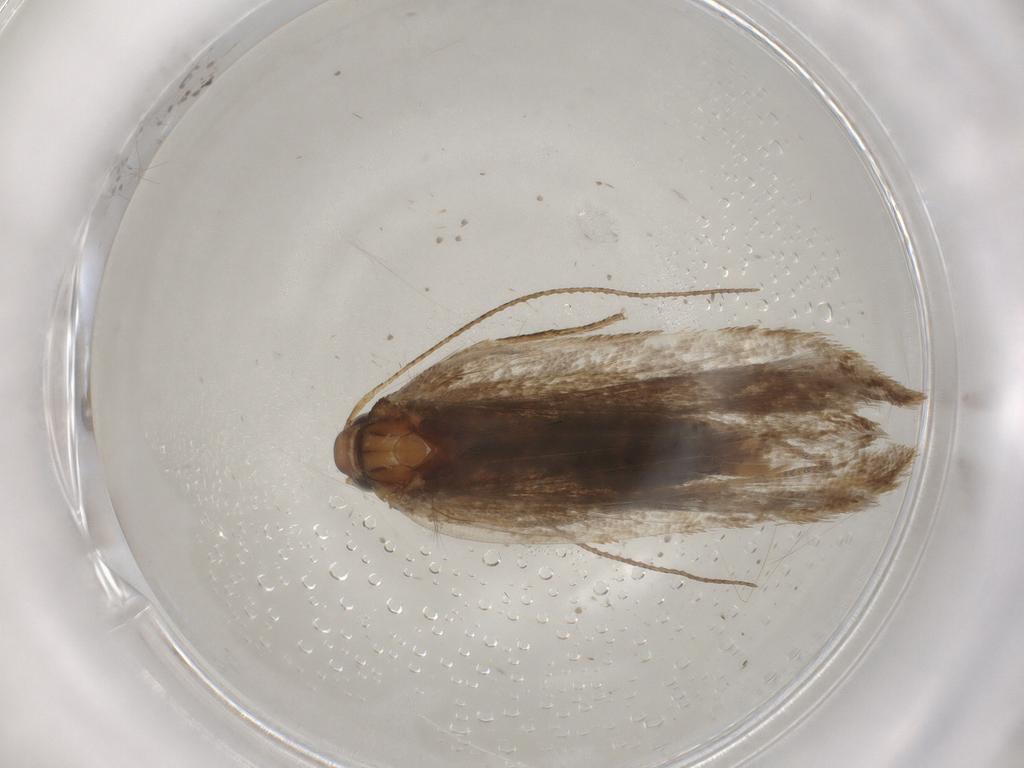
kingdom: Animalia
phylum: Arthropoda
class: Insecta
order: Lepidoptera
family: Gelechiidae
